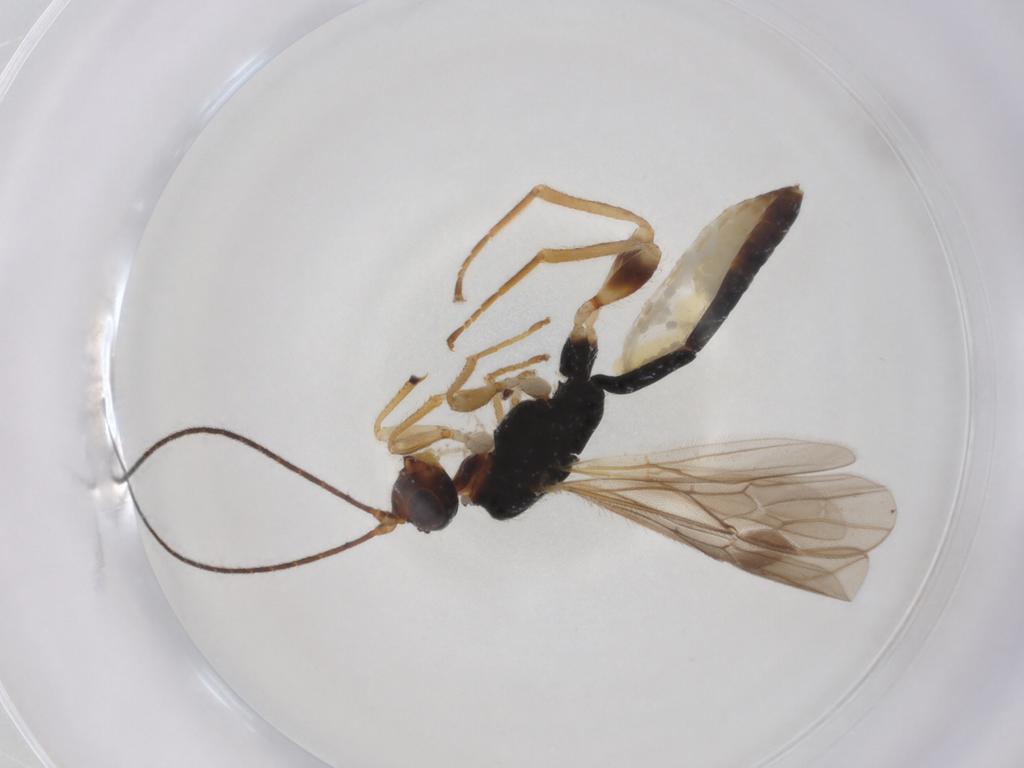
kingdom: Animalia
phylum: Arthropoda
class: Insecta
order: Hymenoptera
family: Braconidae
